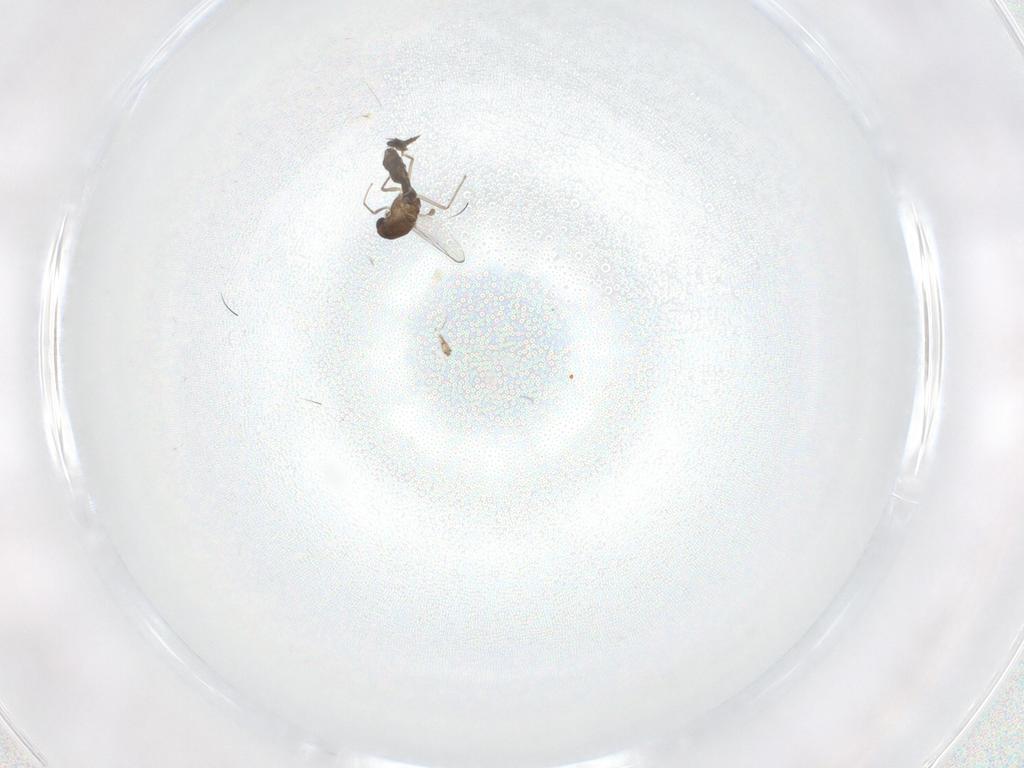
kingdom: Animalia
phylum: Arthropoda
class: Insecta
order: Diptera
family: Chironomidae
